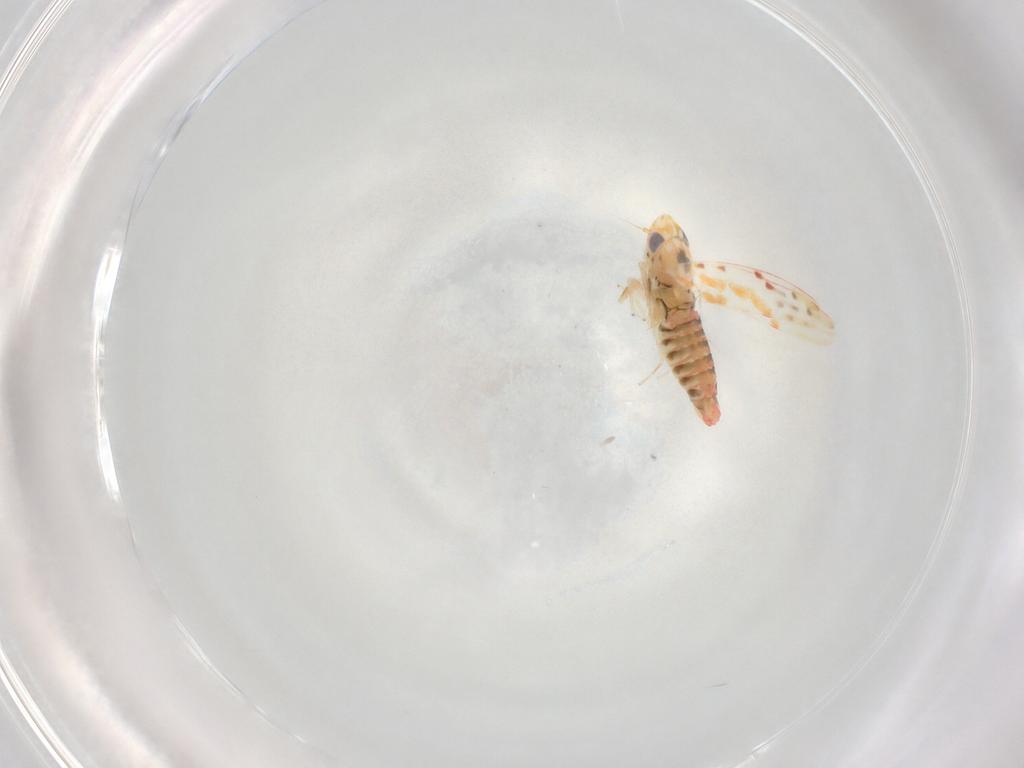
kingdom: Animalia
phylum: Arthropoda
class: Insecta
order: Hemiptera
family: Cicadellidae
